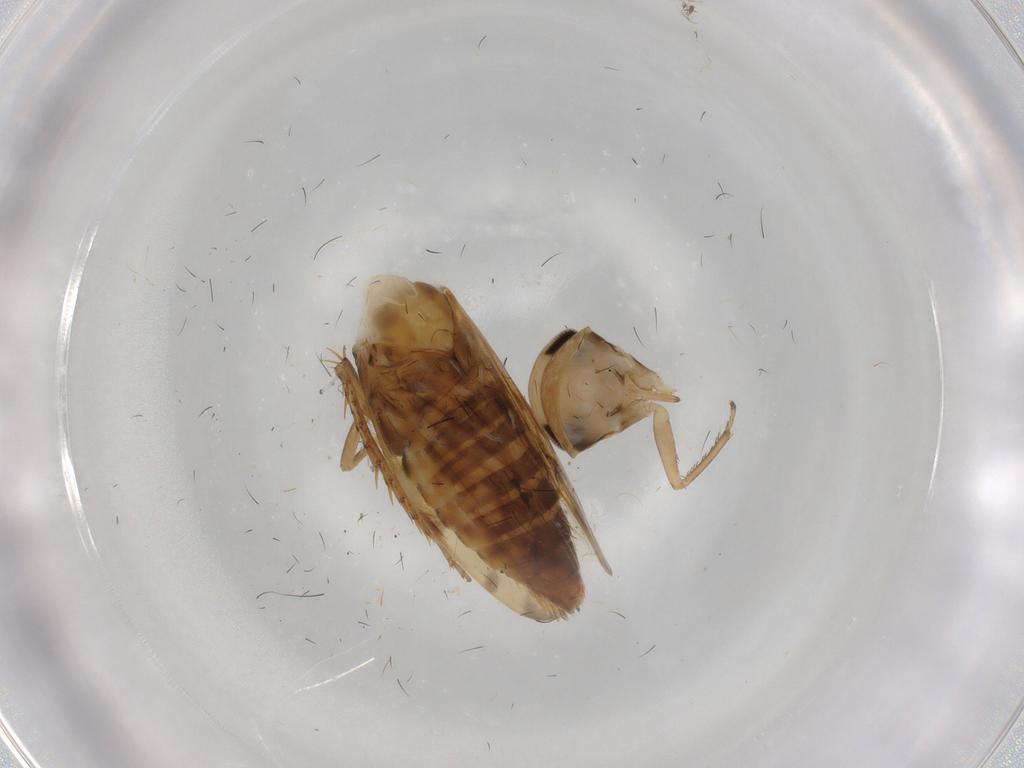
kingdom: Animalia
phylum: Arthropoda
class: Insecta
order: Hemiptera
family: Cicadellidae
